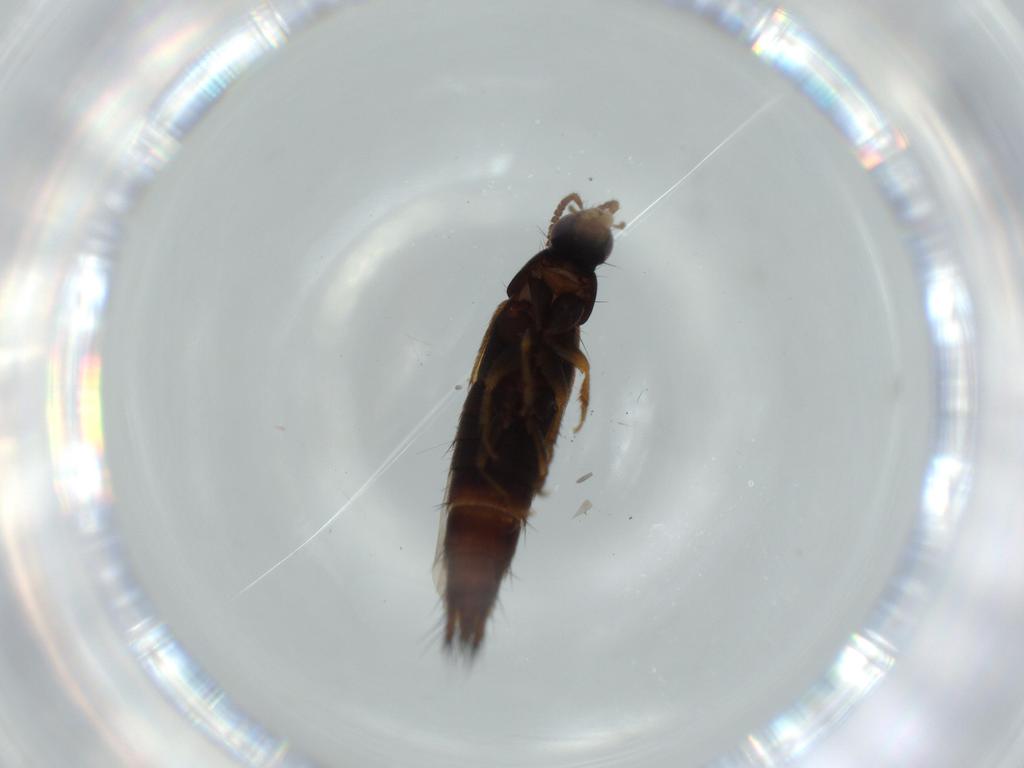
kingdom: Animalia
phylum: Arthropoda
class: Insecta
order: Coleoptera
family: Staphylinidae
